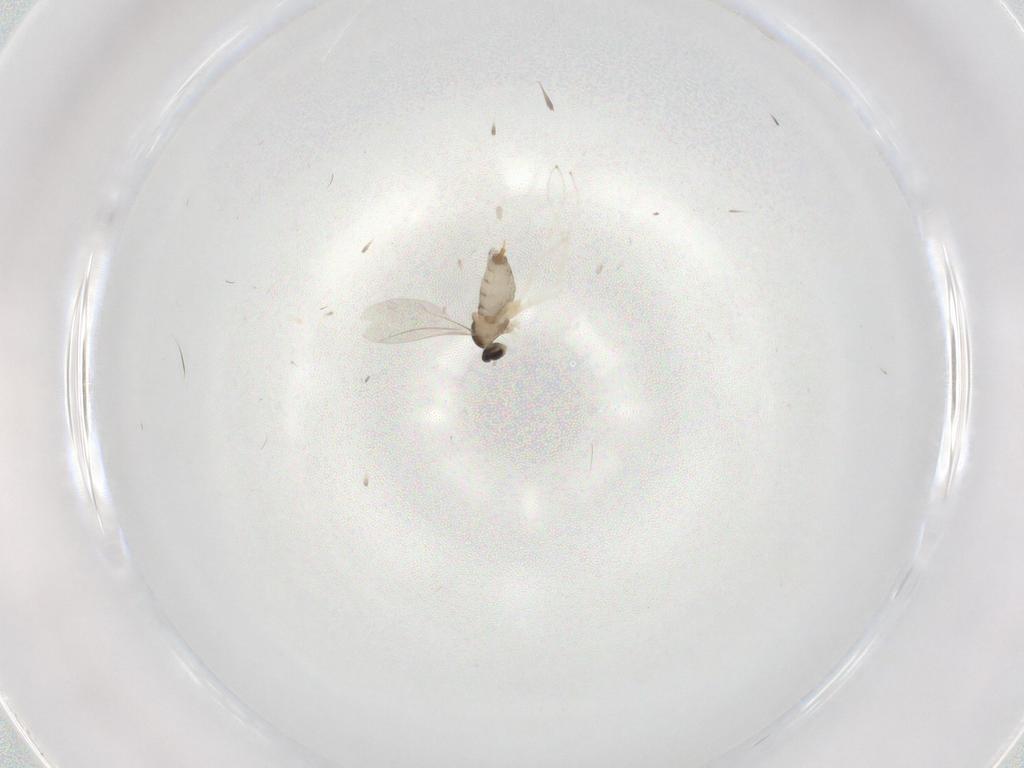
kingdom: Animalia
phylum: Arthropoda
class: Insecta
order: Diptera
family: Cecidomyiidae
